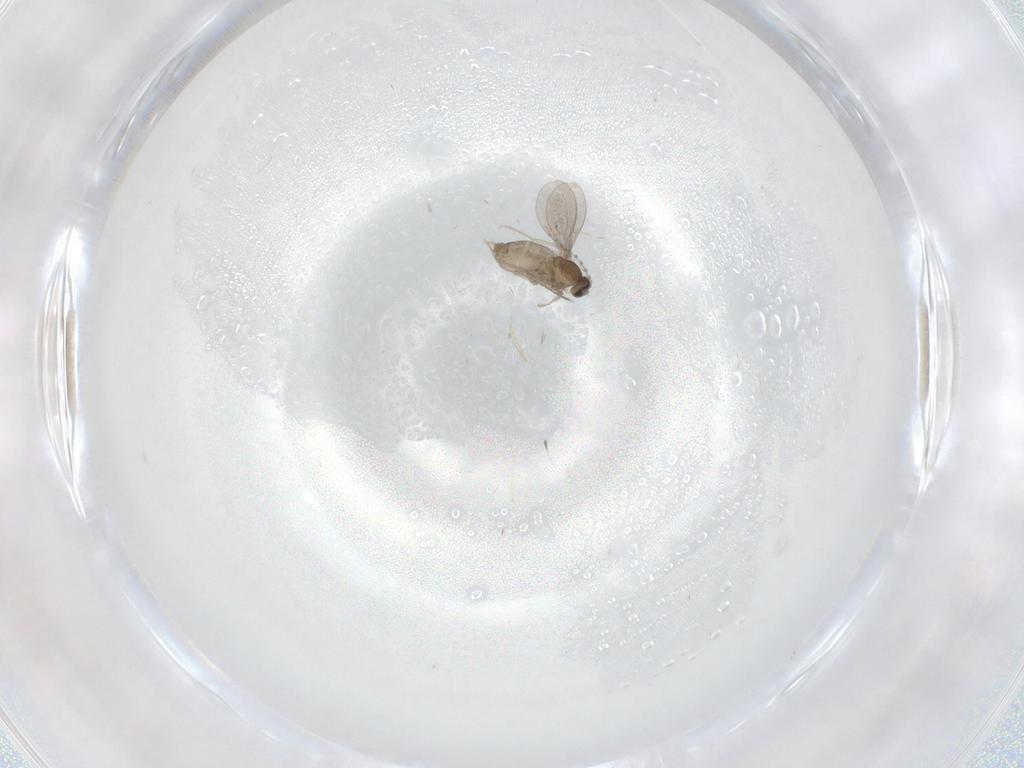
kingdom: Animalia
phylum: Arthropoda
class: Insecta
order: Diptera
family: Cecidomyiidae
